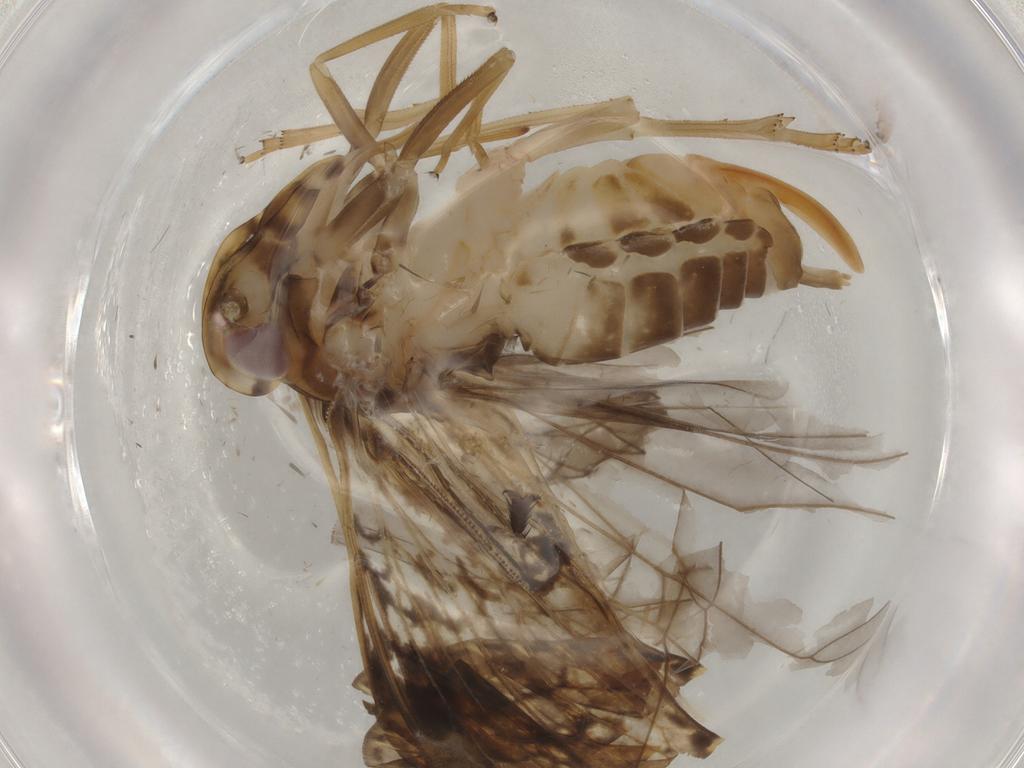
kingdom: Animalia
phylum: Arthropoda
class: Insecta
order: Hemiptera
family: Cixiidae
